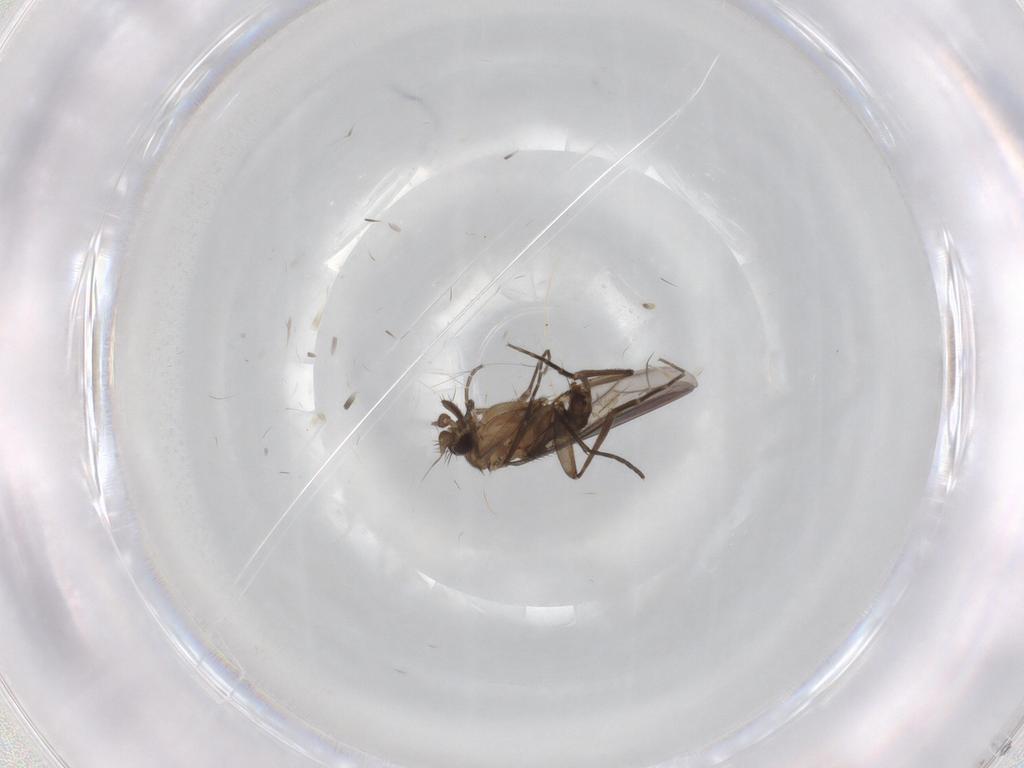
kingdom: Animalia
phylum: Arthropoda
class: Insecta
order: Diptera
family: Phoridae
